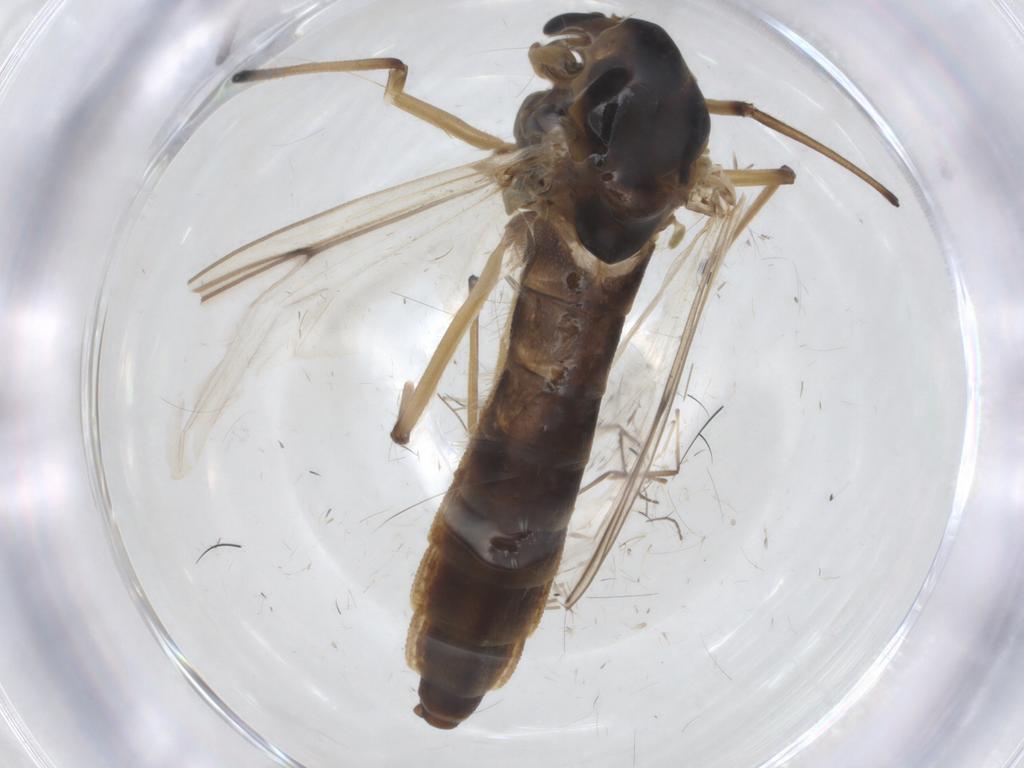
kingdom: Animalia
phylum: Arthropoda
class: Insecta
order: Diptera
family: Chironomidae
